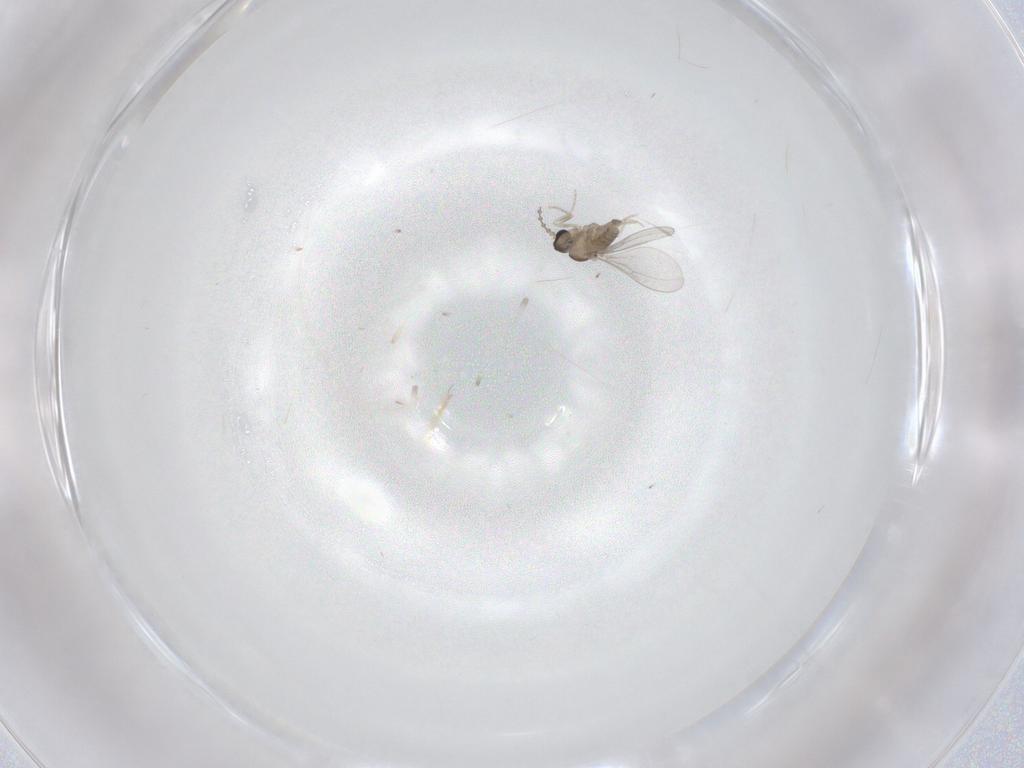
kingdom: Animalia
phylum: Arthropoda
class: Insecta
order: Diptera
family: Cecidomyiidae
